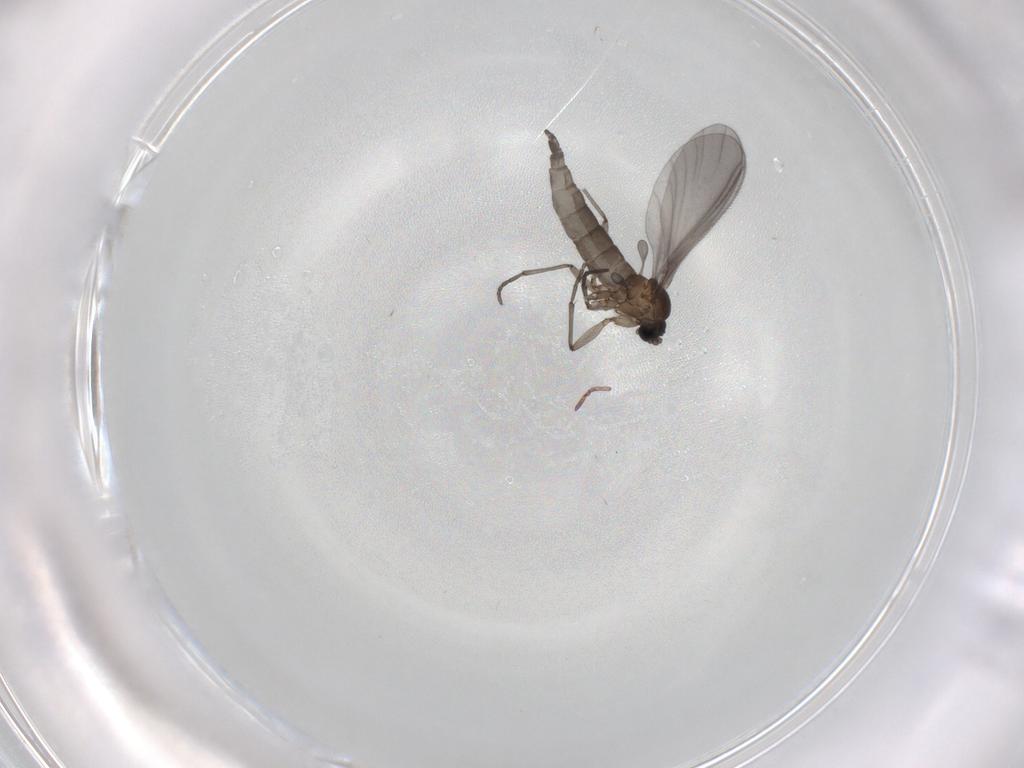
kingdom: Animalia
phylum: Arthropoda
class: Insecta
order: Diptera
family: Sciaridae
